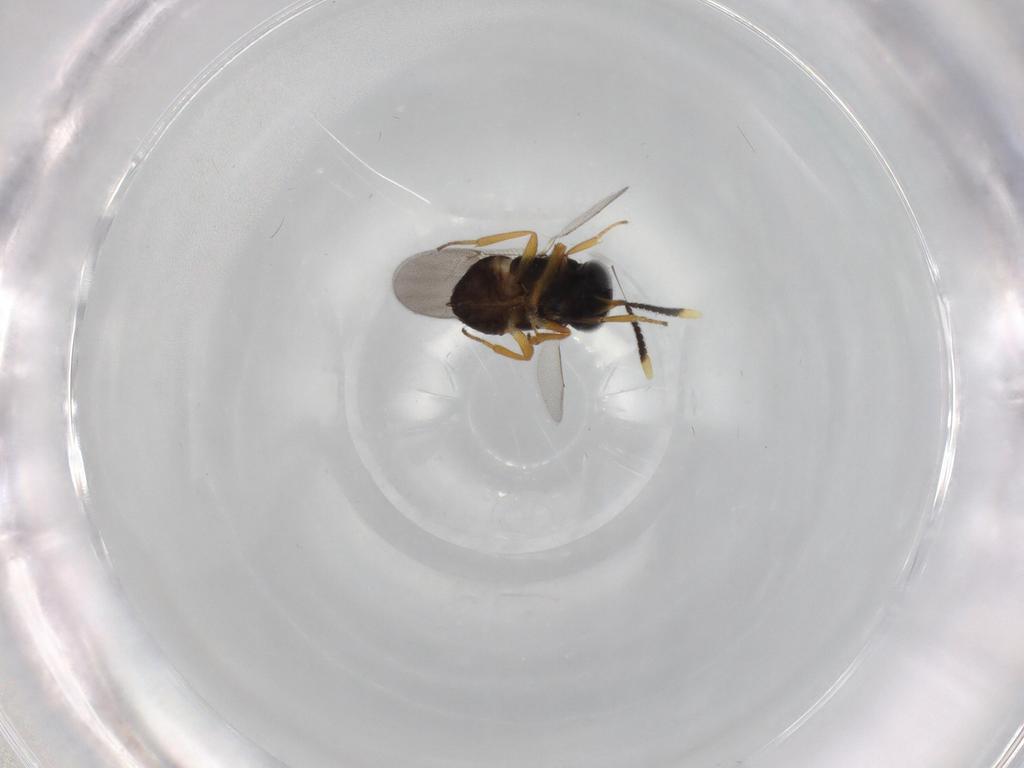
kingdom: Animalia
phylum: Arthropoda
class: Insecta
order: Hymenoptera
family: Encyrtidae
